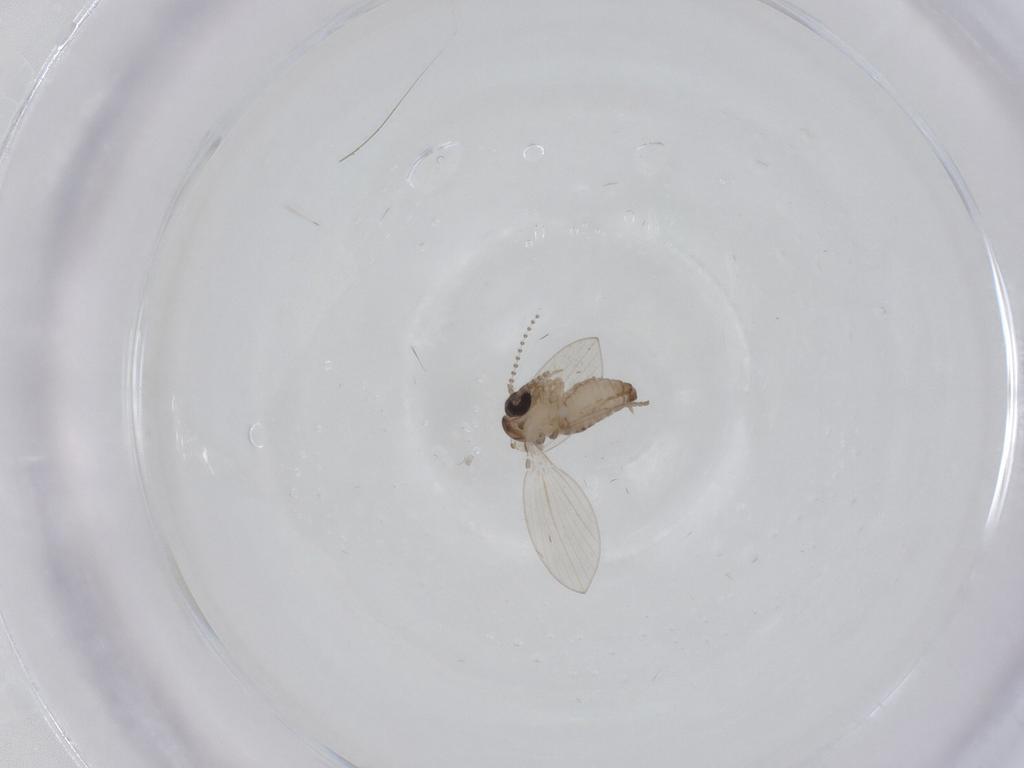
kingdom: Animalia
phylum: Arthropoda
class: Insecta
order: Diptera
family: Psychodidae
